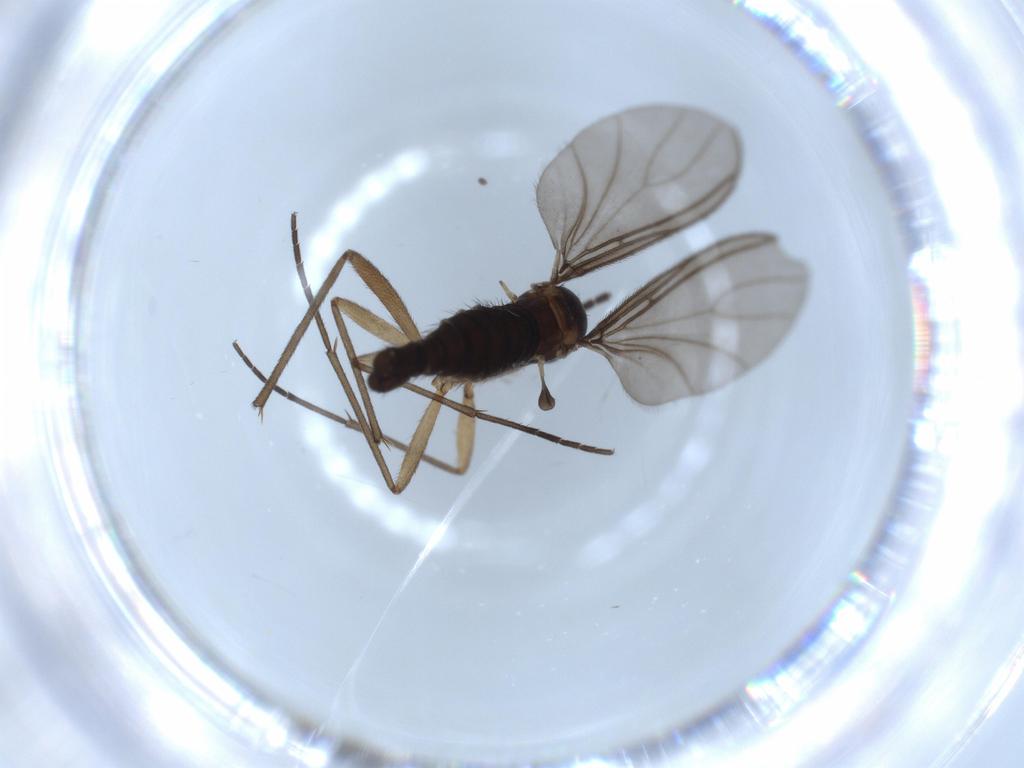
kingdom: Animalia
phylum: Arthropoda
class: Insecta
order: Diptera
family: Sciaridae
